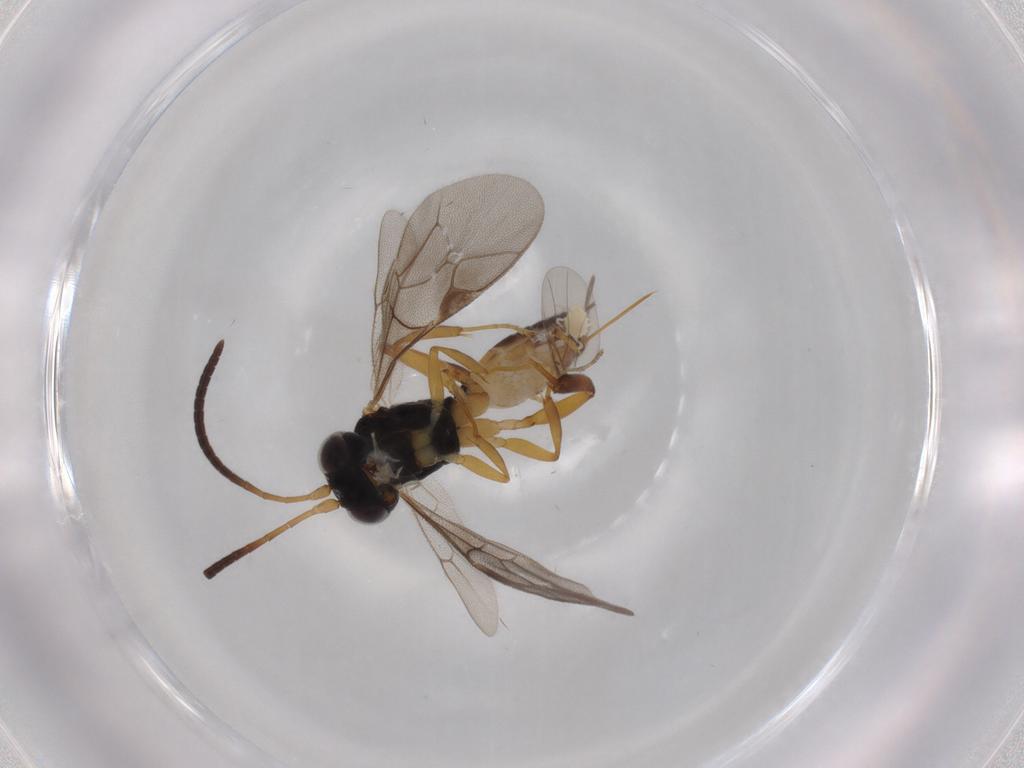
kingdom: Animalia
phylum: Arthropoda
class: Insecta
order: Hymenoptera
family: Ichneumonidae
